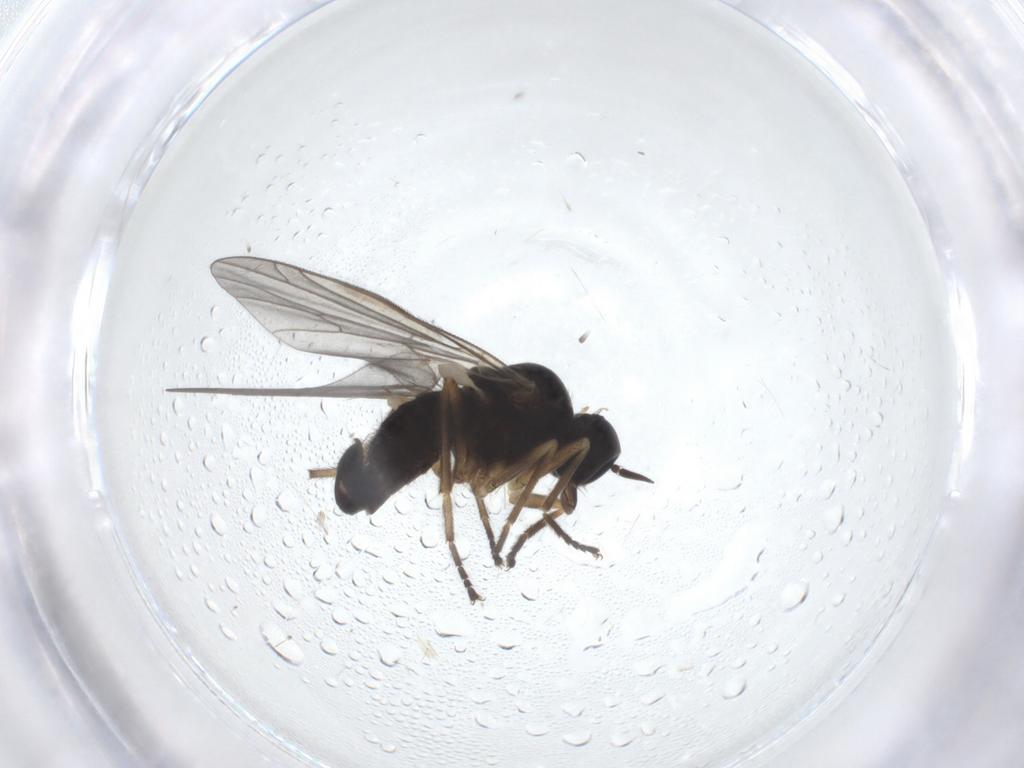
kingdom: Animalia
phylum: Arthropoda
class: Insecta
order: Diptera
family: Empididae
